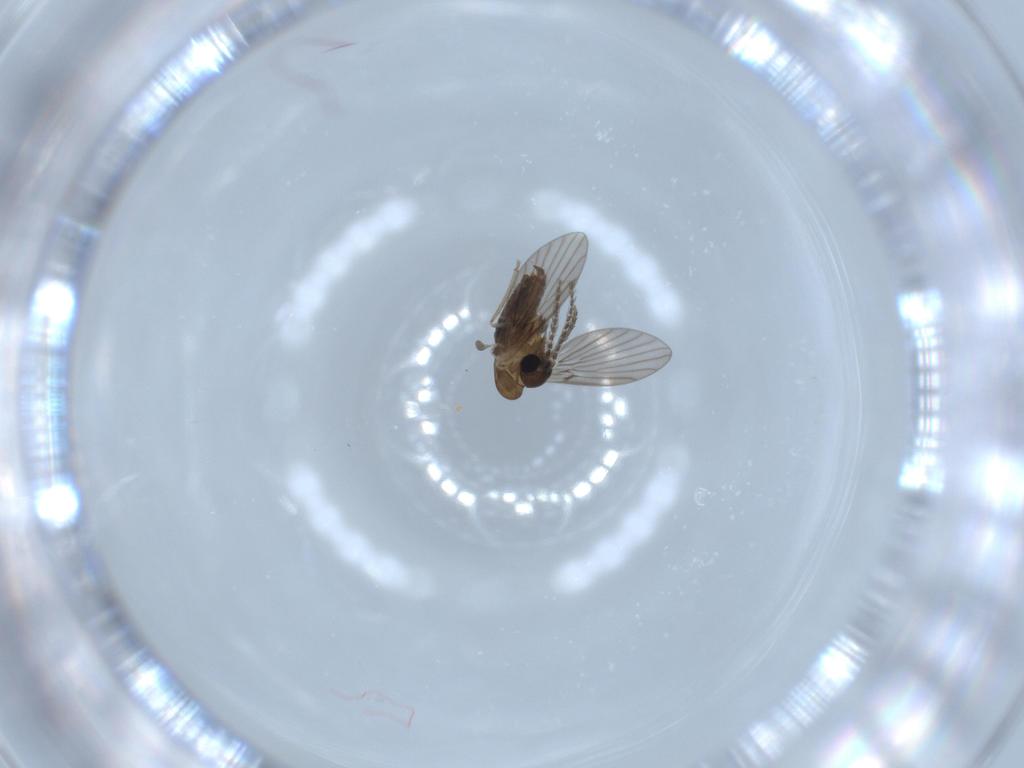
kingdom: Animalia
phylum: Arthropoda
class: Insecta
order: Diptera
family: Psychodidae
